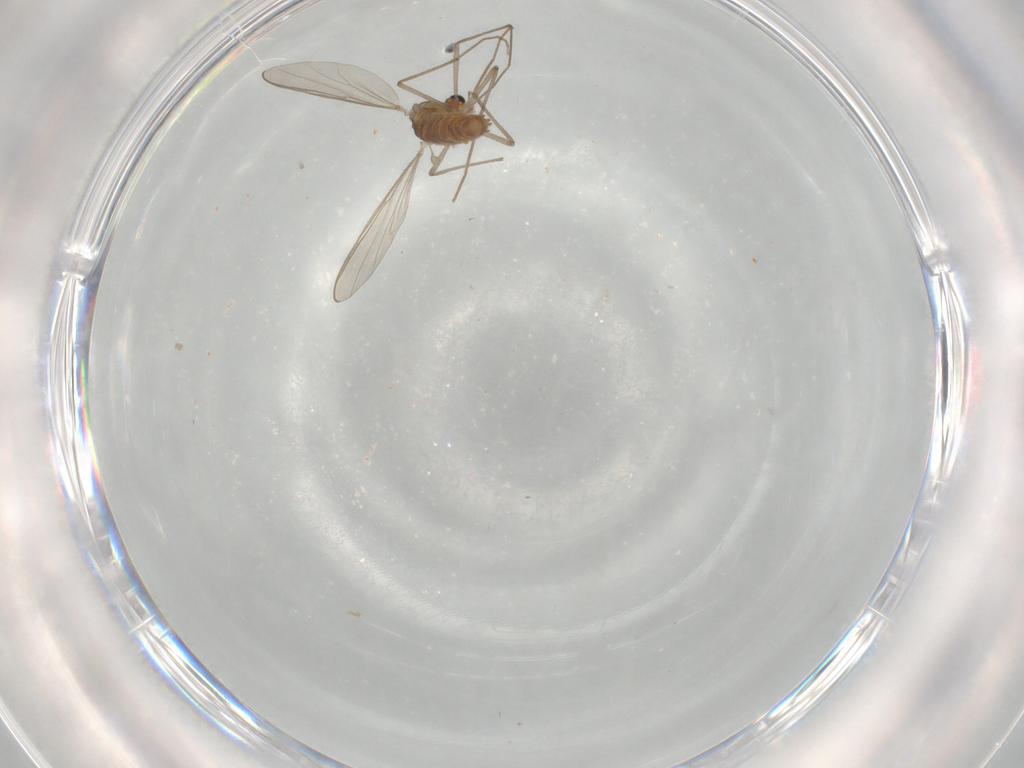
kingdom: Animalia
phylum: Arthropoda
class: Insecta
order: Diptera
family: Chironomidae
